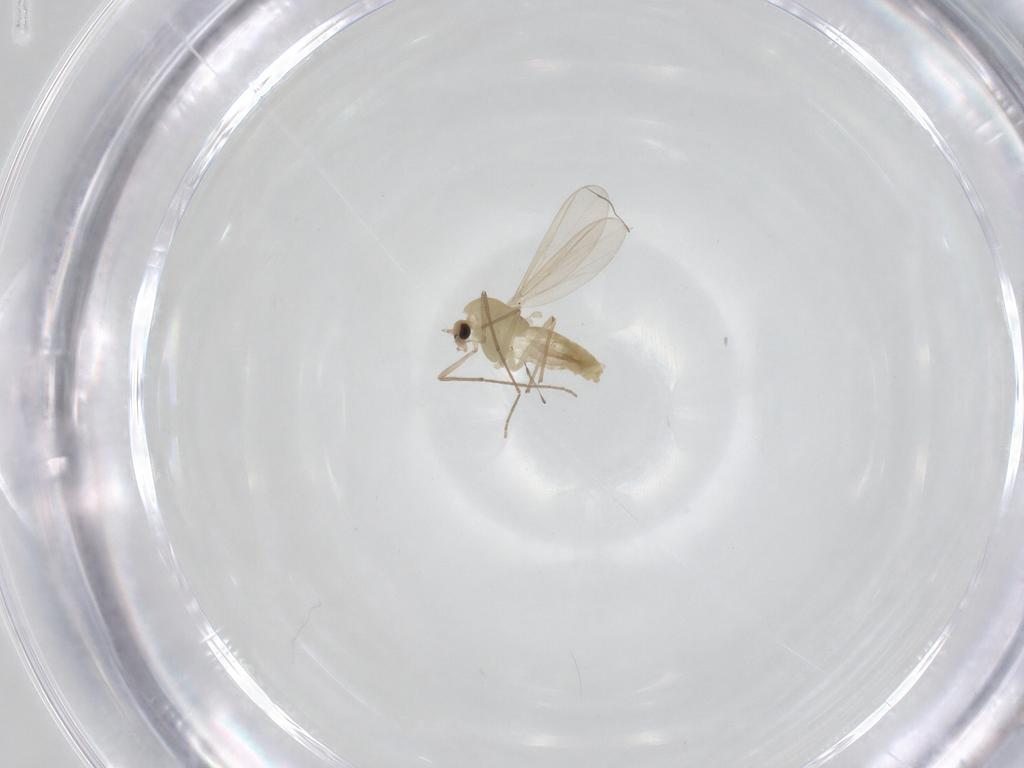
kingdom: Animalia
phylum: Arthropoda
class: Insecta
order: Diptera
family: Chironomidae
